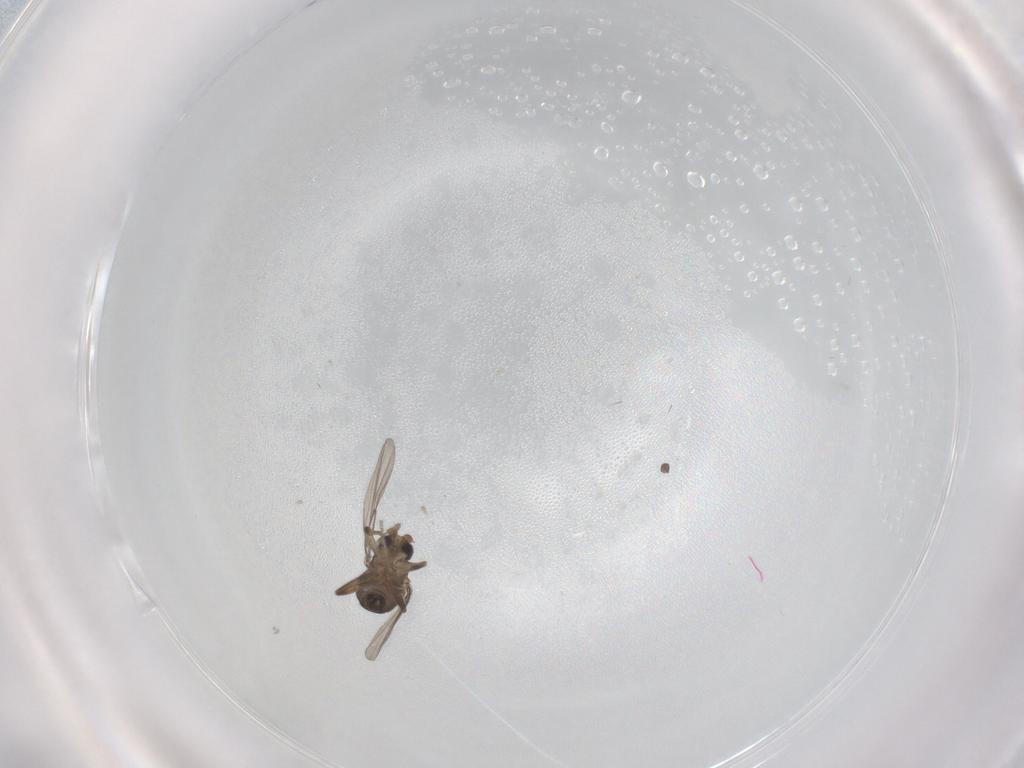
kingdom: Animalia
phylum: Arthropoda
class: Insecta
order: Diptera
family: Phoridae
